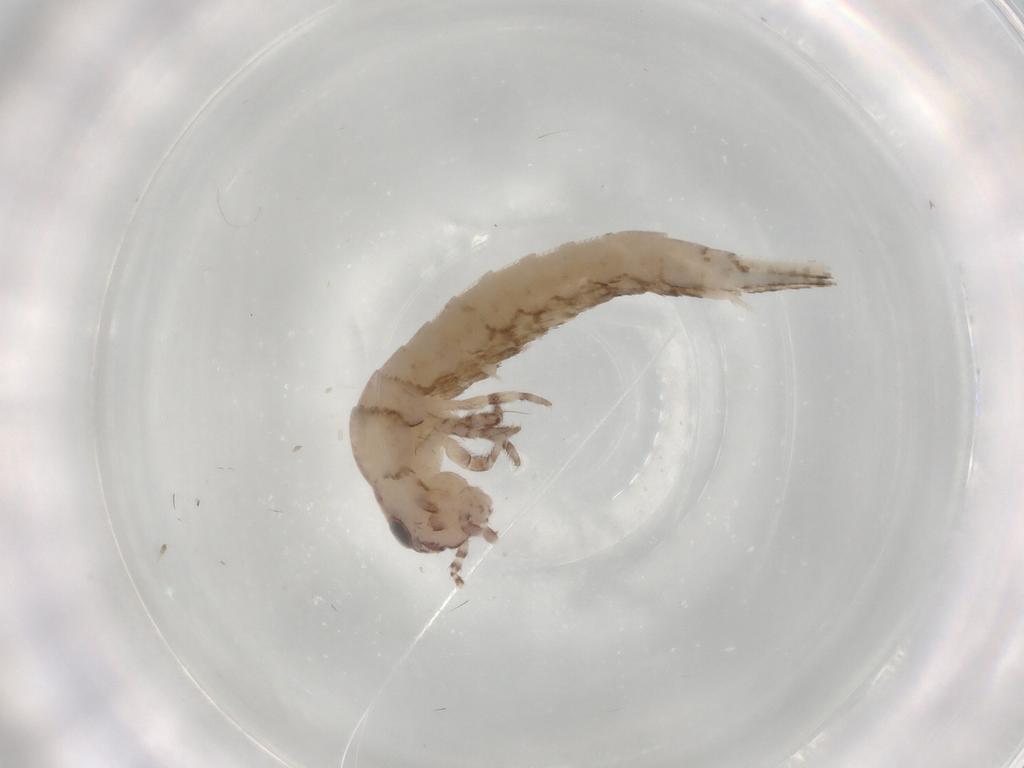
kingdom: Animalia
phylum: Arthropoda
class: Insecta
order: Archaeognatha
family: Meinertellidae
